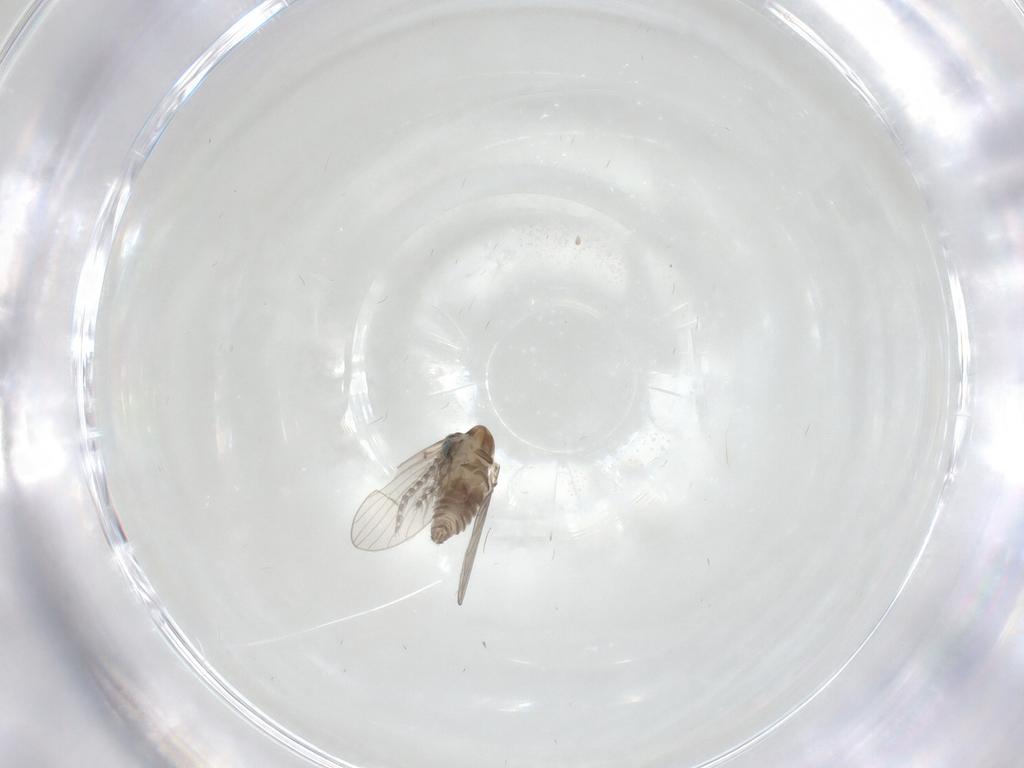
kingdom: Animalia
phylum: Arthropoda
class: Insecta
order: Diptera
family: Psychodidae
